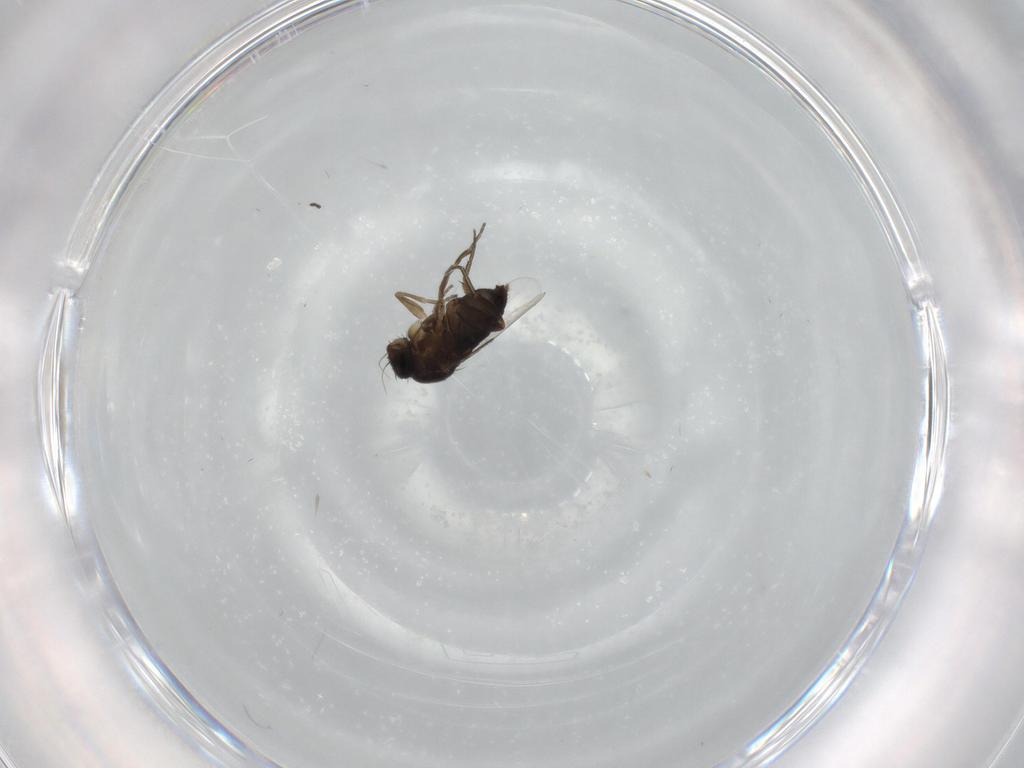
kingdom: Animalia
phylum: Arthropoda
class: Insecta
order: Diptera
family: Phoridae
